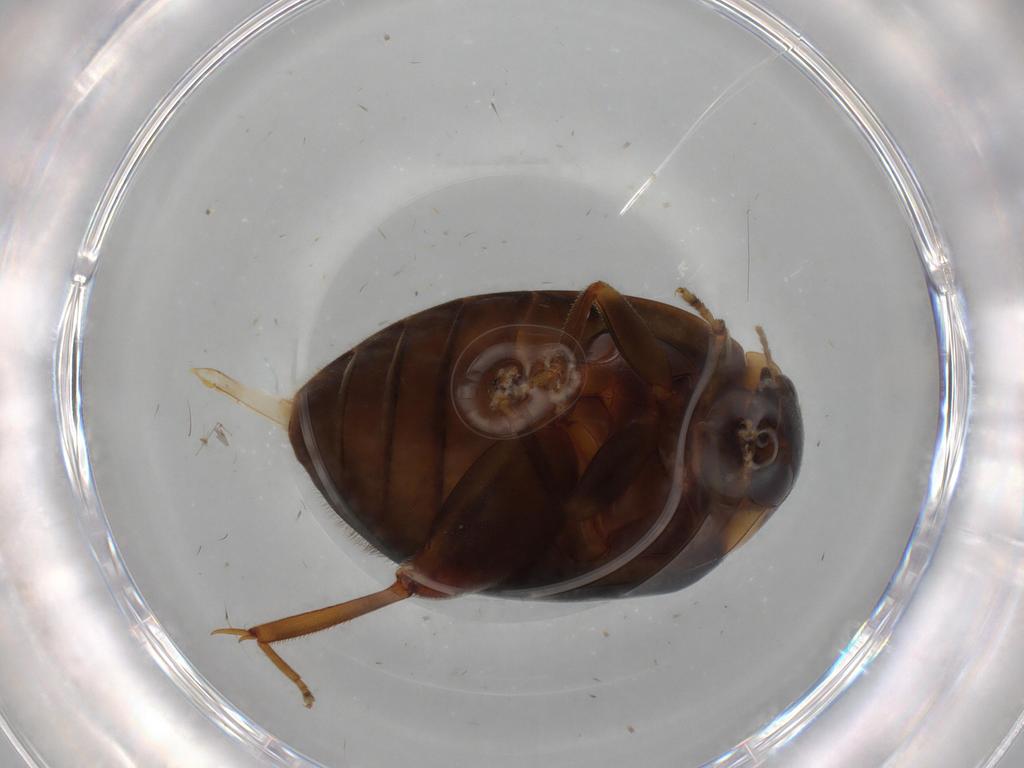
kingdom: Animalia
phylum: Arthropoda
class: Insecta
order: Coleoptera
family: Scirtidae
